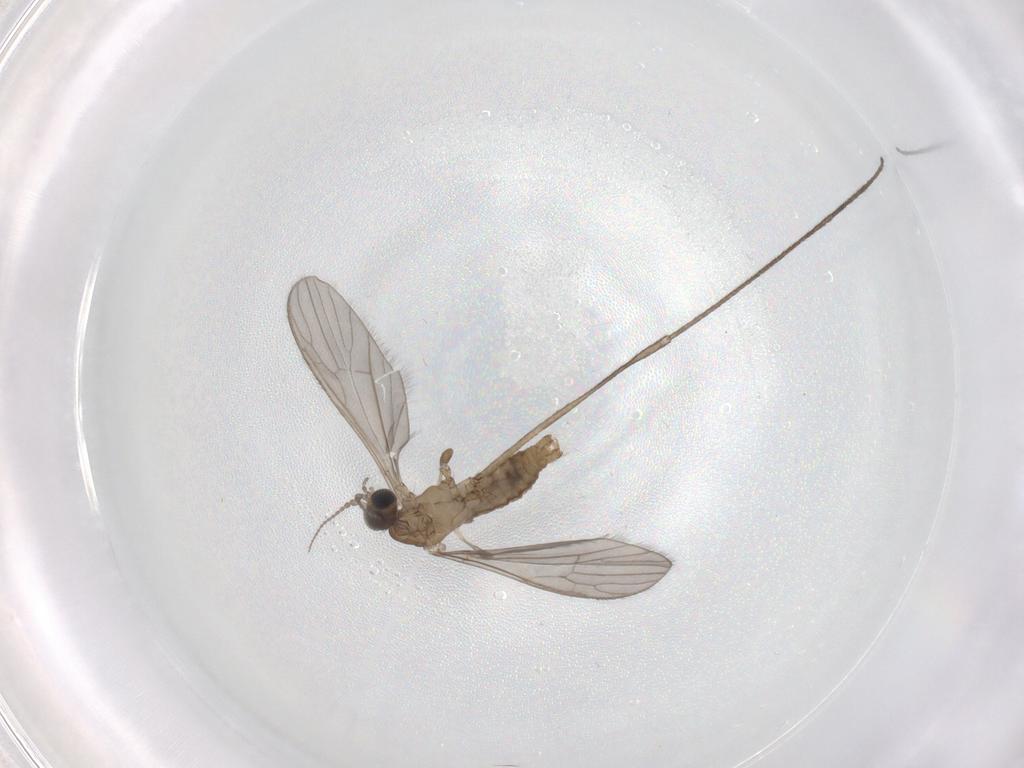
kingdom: Animalia
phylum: Arthropoda
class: Insecta
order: Diptera
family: Limoniidae
